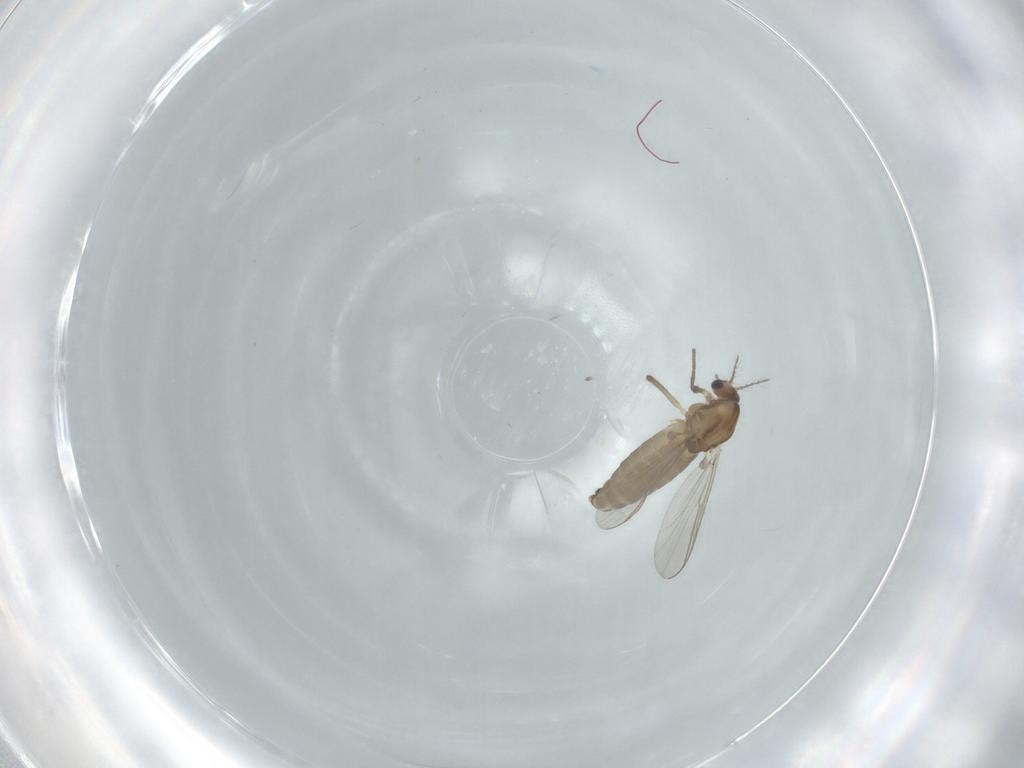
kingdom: Animalia
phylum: Arthropoda
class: Insecta
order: Diptera
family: Chironomidae
